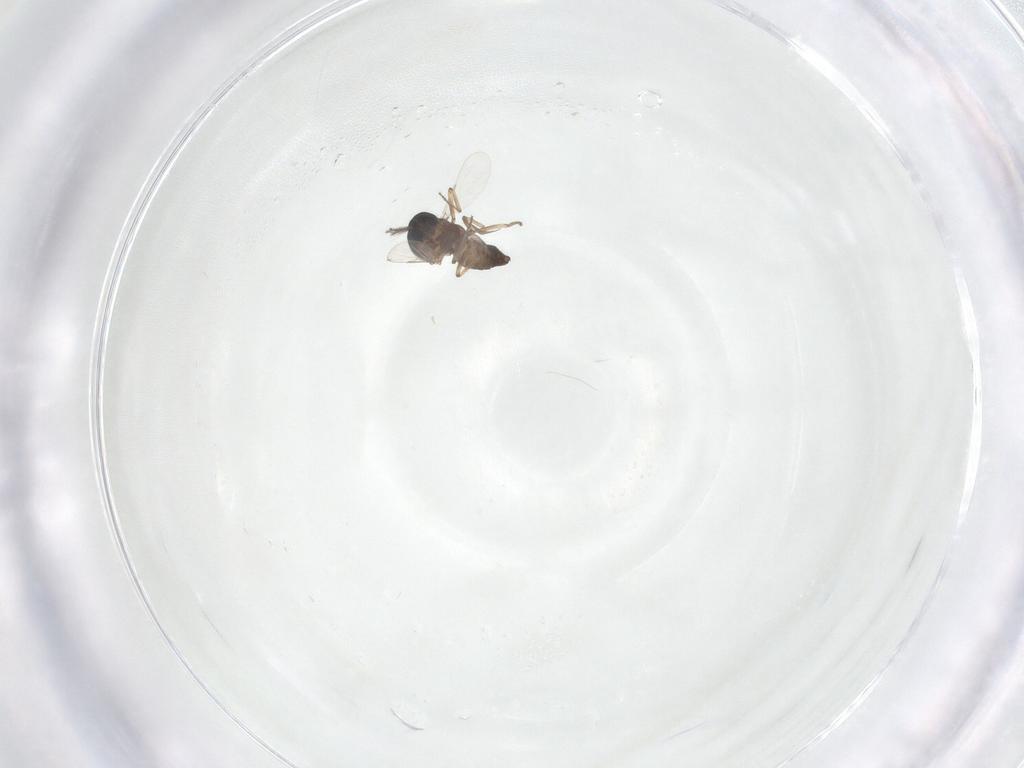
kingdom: Animalia
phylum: Arthropoda
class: Insecta
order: Diptera
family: Ceratopogonidae
